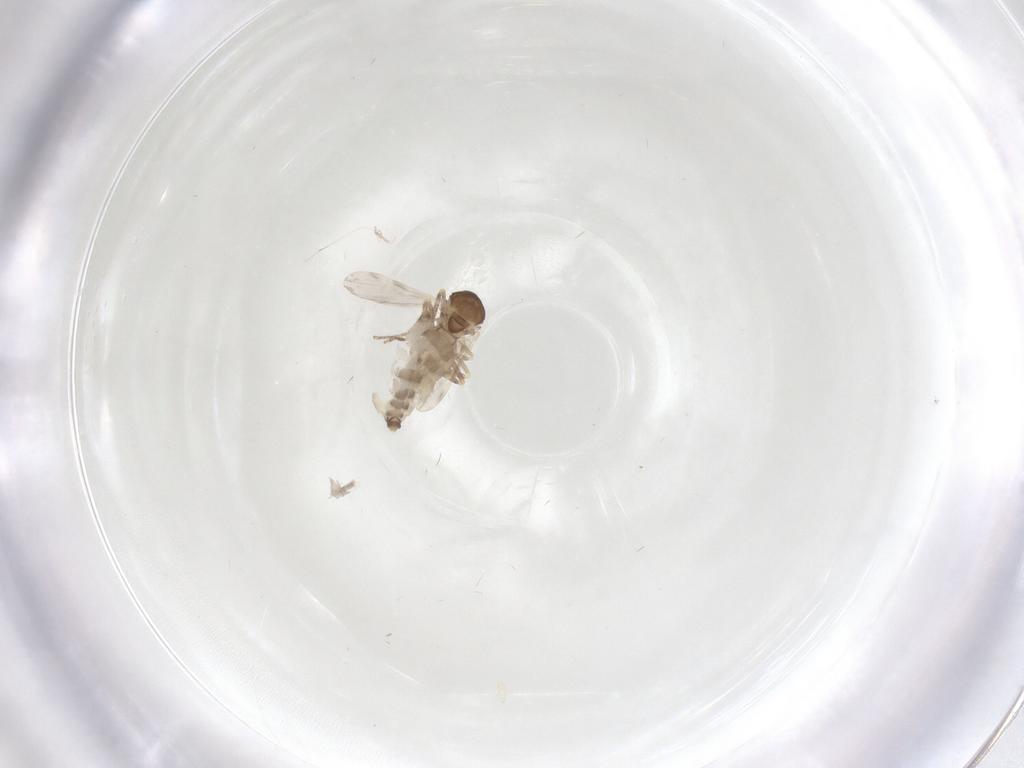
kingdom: Animalia
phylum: Arthropoda
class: Insecta
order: Diptera
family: Ceratopogonidae
